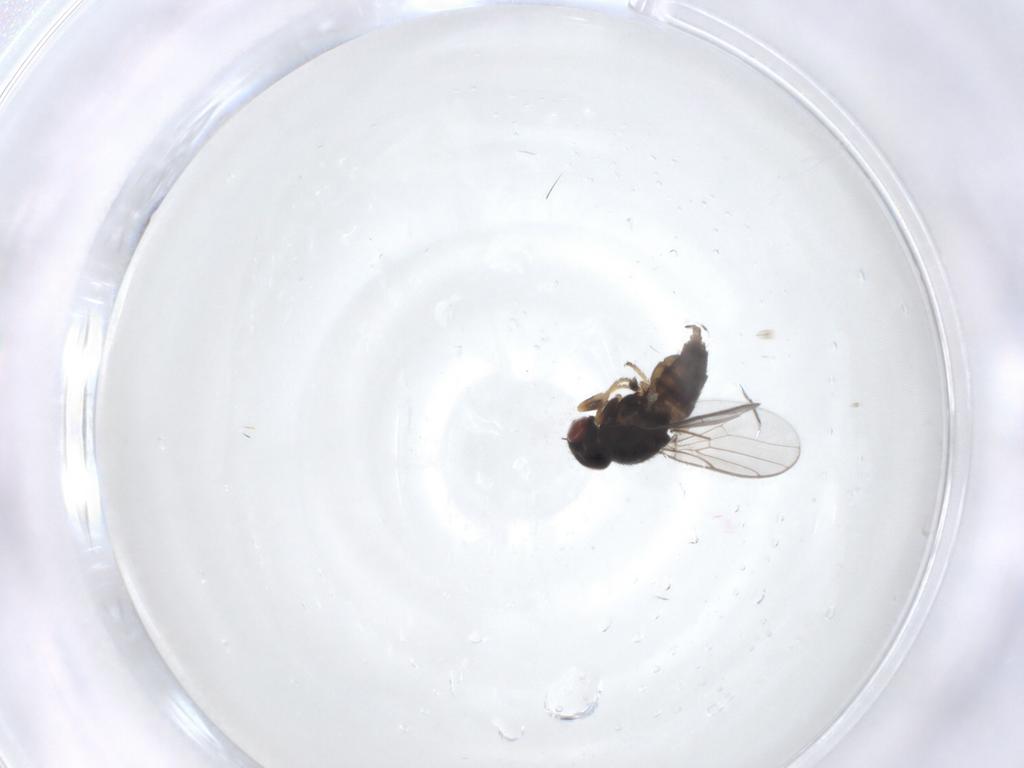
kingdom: Animalia
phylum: Arthropoda
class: Insecta
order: Diptera
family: Chloropidae
